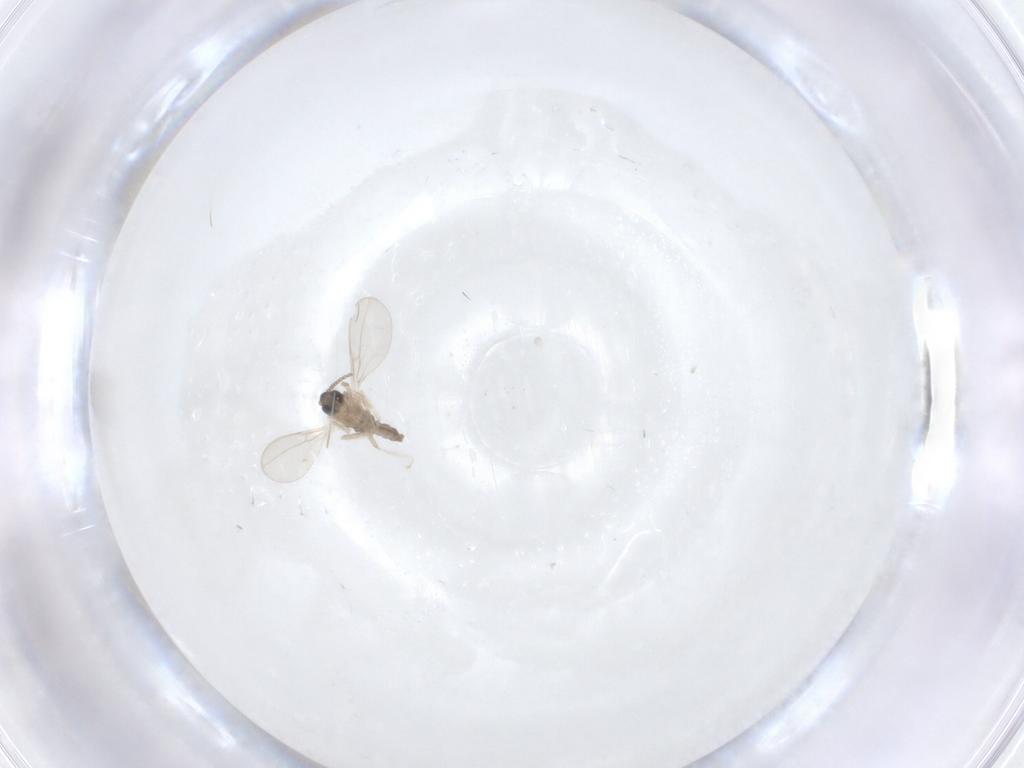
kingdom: Animalia
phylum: Arthropoda
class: Insecta
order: Diptera
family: Cecidomyiidae
